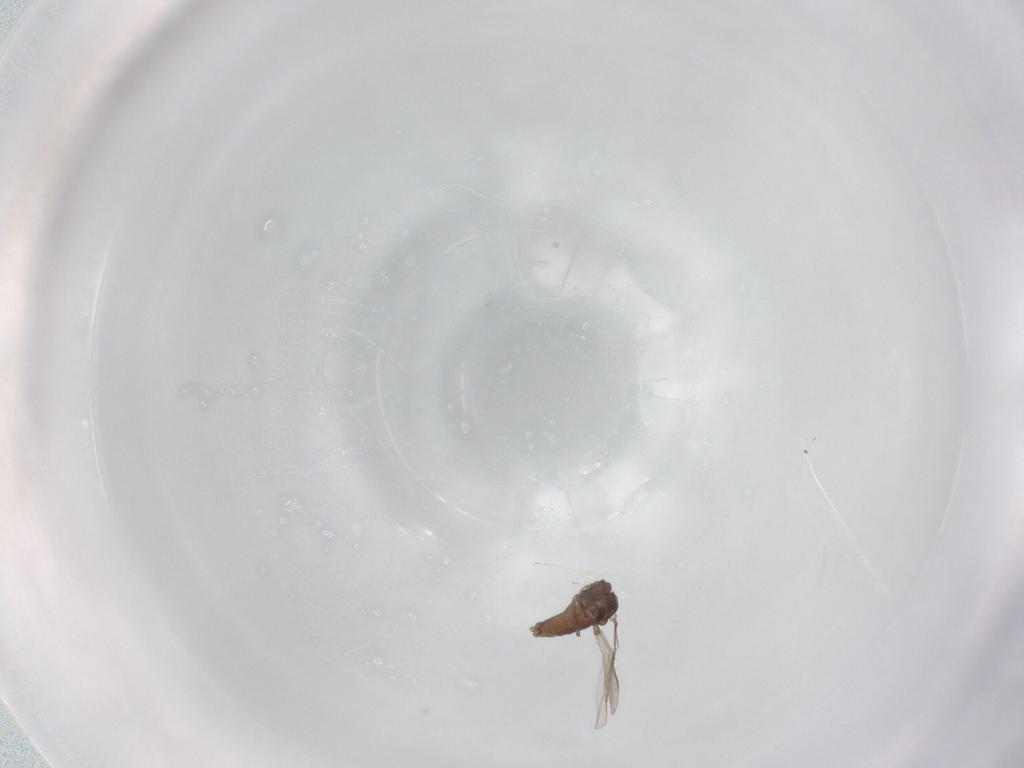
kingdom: Animalia
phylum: Arthropoda
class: Insecta
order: Diptera
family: Chironomidae
